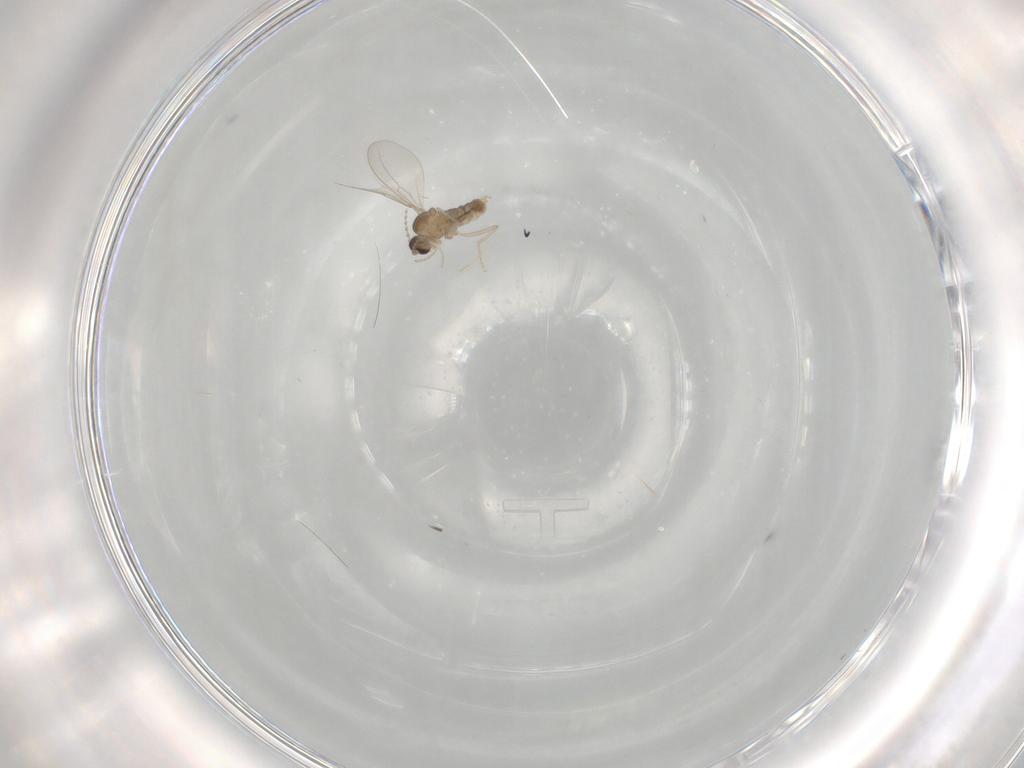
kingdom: Animalia
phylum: Arthropoda
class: Insecta
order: Diptera
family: Cecidomyiidae
